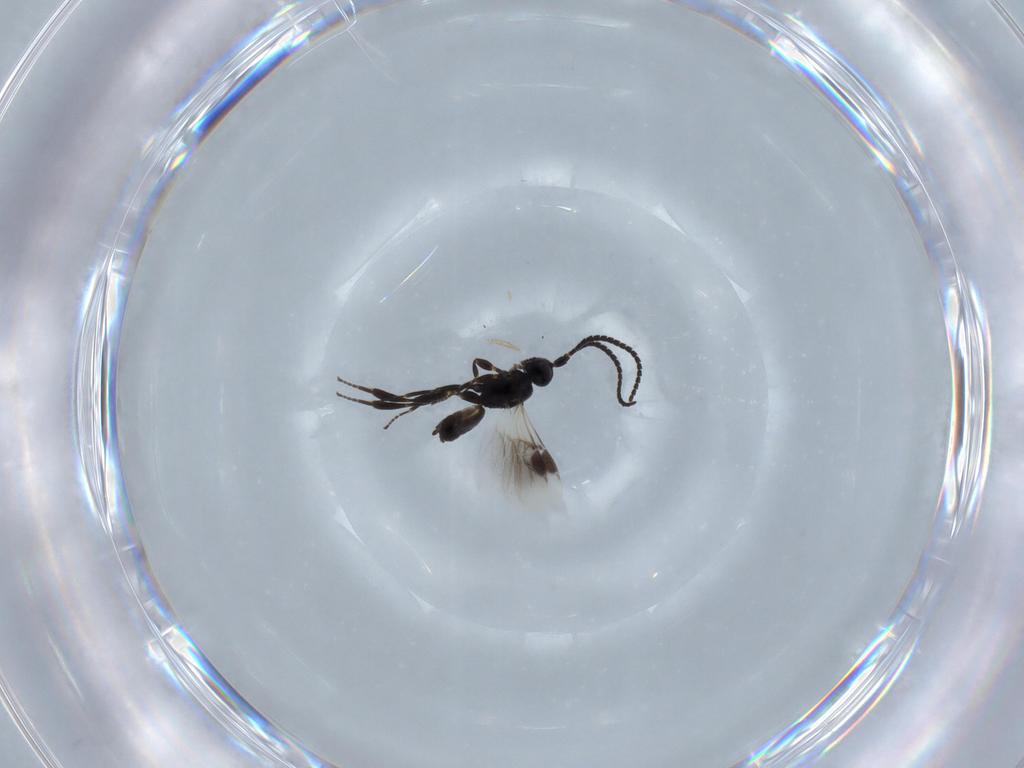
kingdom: Animalia
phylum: Arthropoda
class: Insecta
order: Hymenoptera
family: Braconidae
